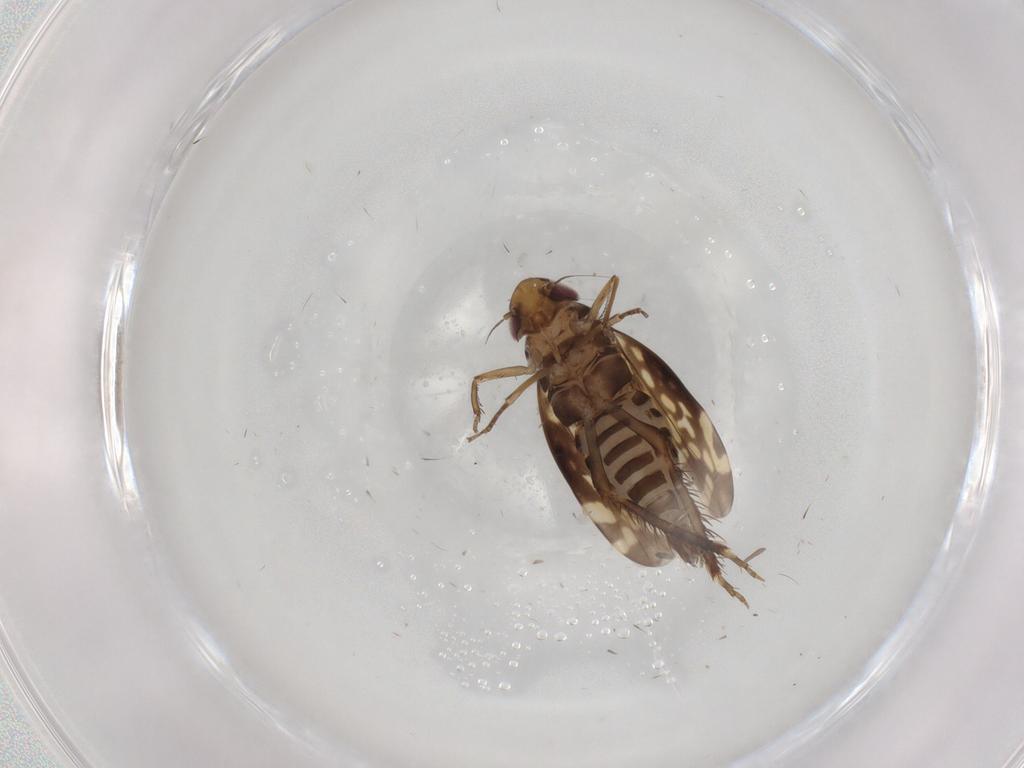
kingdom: Animalia
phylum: Arthropoda
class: Insecta
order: Hemiptera
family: Cicadellidae
